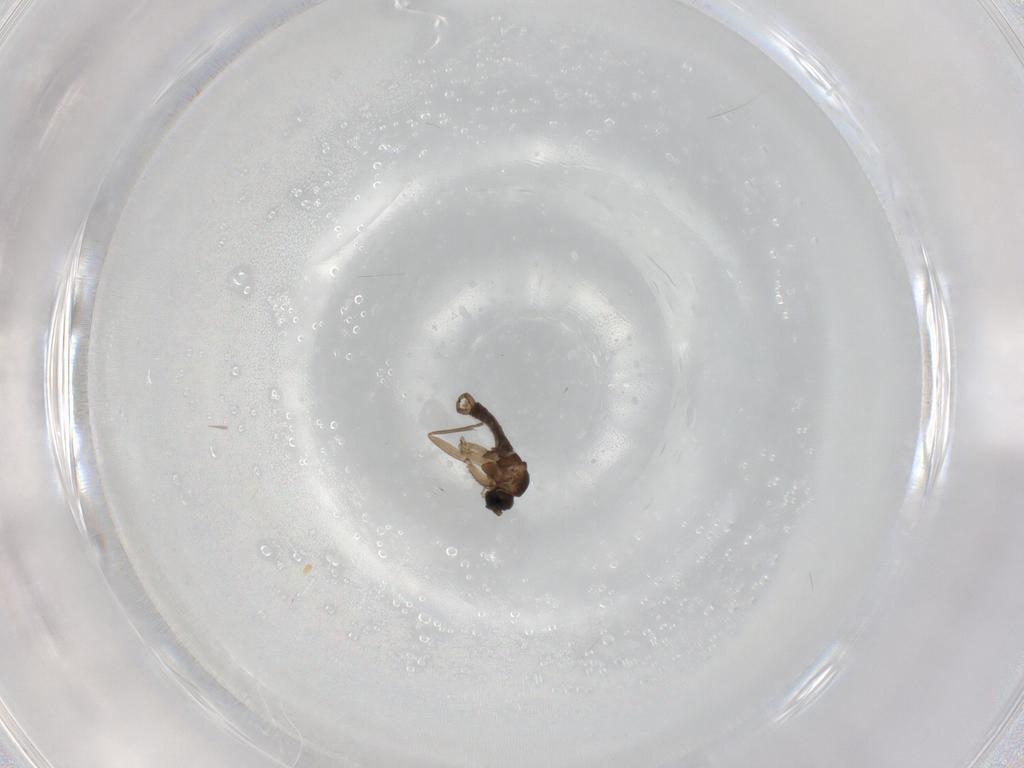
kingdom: Animalia
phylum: Arthropoda
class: Insecta
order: Diptera
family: Sciaridae
